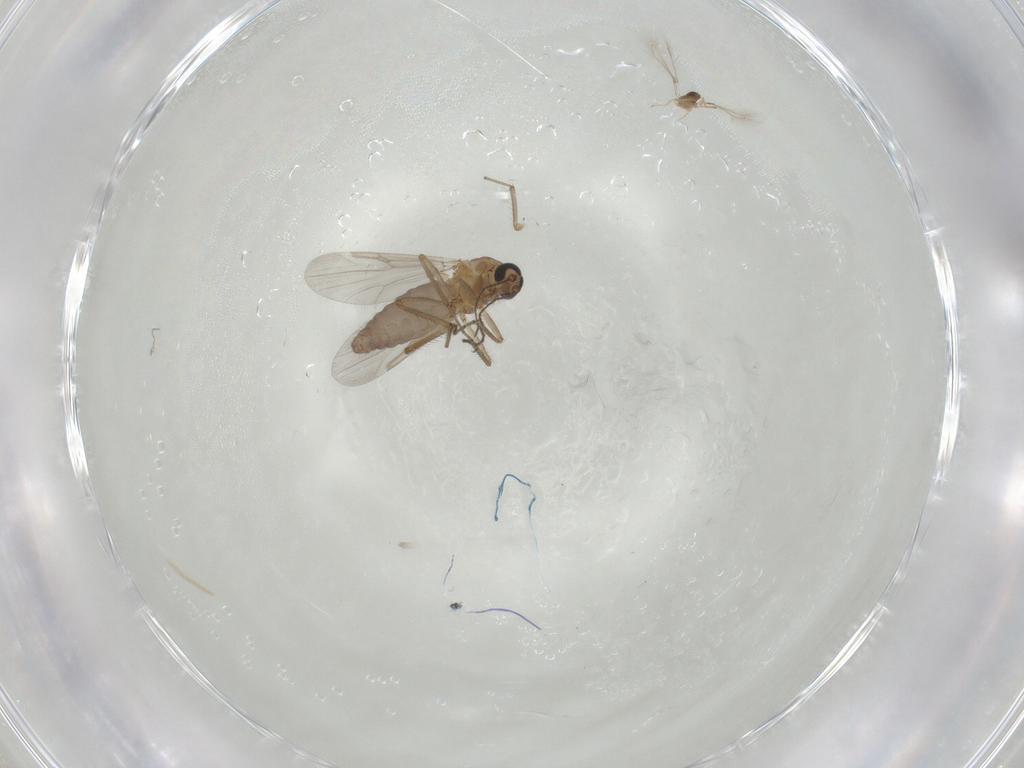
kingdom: Animalia
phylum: Arthropoda
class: Insecta
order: Diptera
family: Ceratopogonidae
